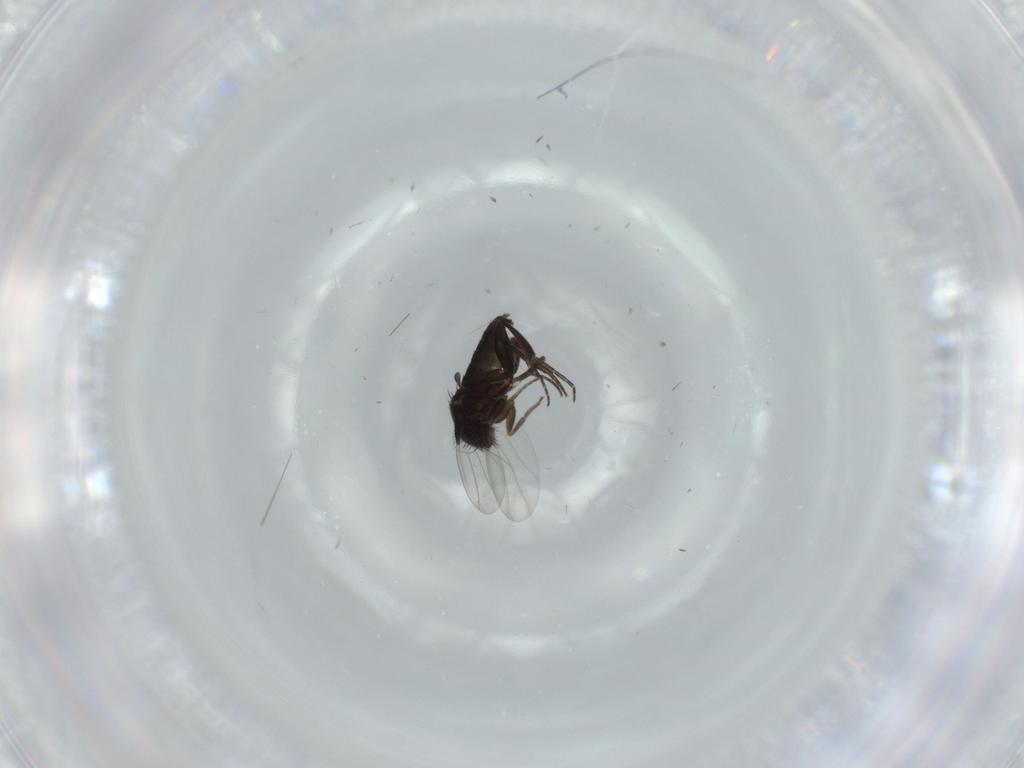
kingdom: Animalia
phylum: Arthropoda
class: Insecta
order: Diptera
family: Phoridae
